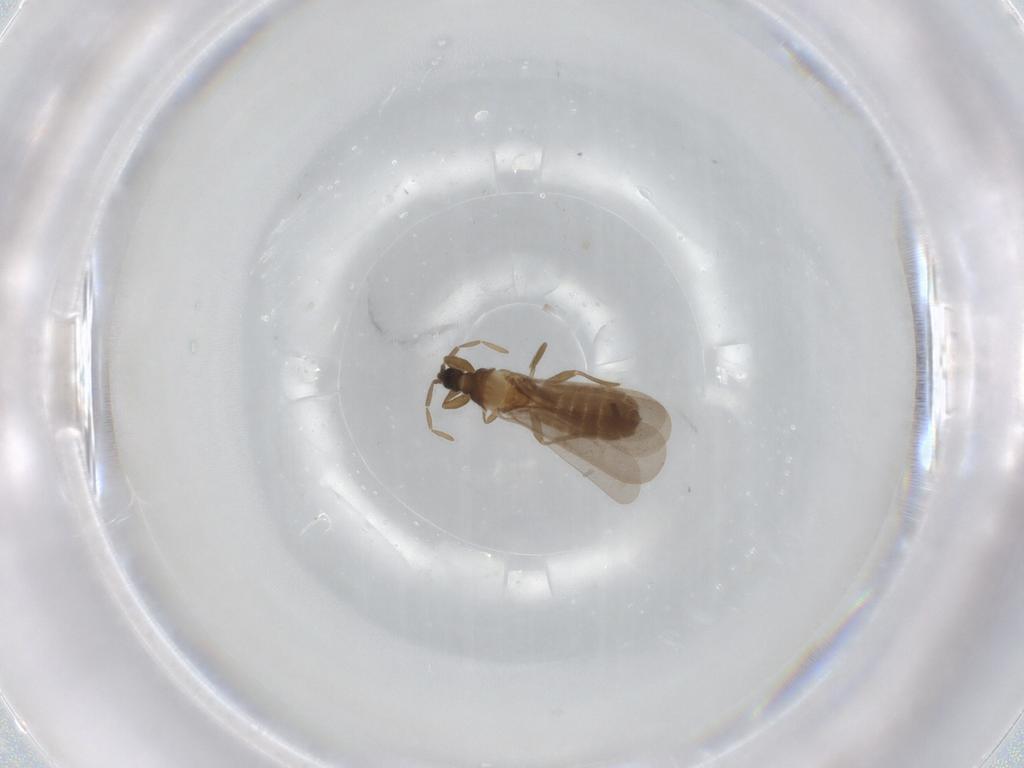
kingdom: Animalia
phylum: Arthropoda
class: Insecta
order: Hemiptera
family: Enicocephalidae
